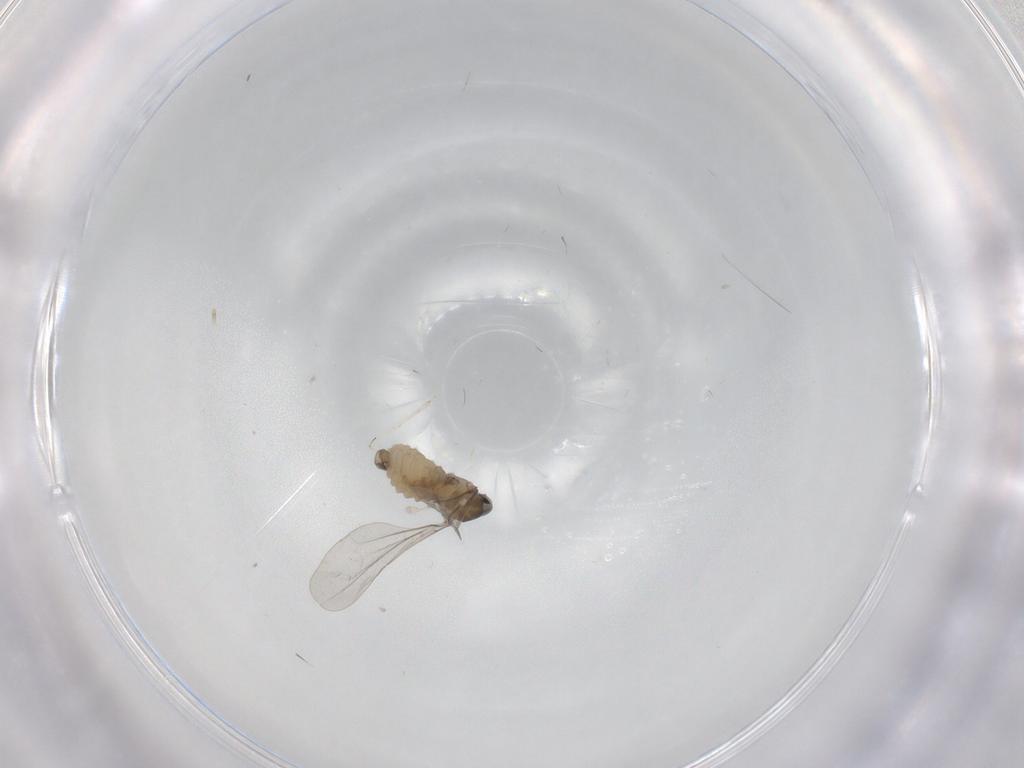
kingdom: Animalia
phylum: Arthropoda
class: Insecta
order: Diptera
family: Cecidomyiidae
